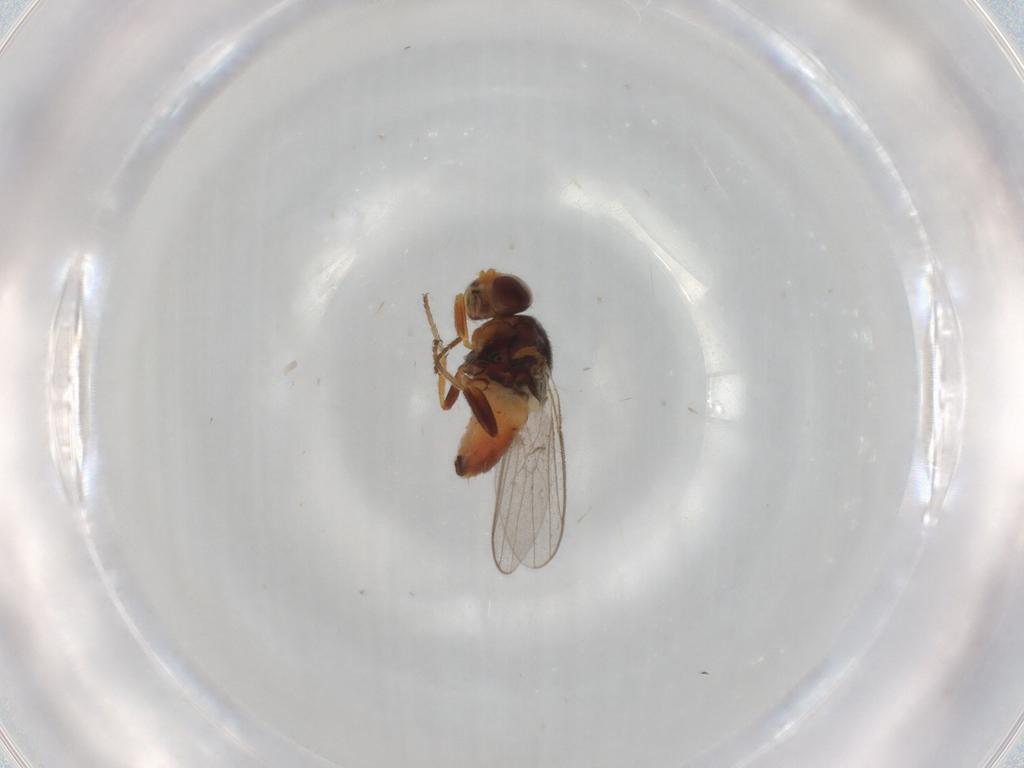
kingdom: Animalia
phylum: Arthropoda
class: Insecta
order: Diptera
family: Chloropidae
